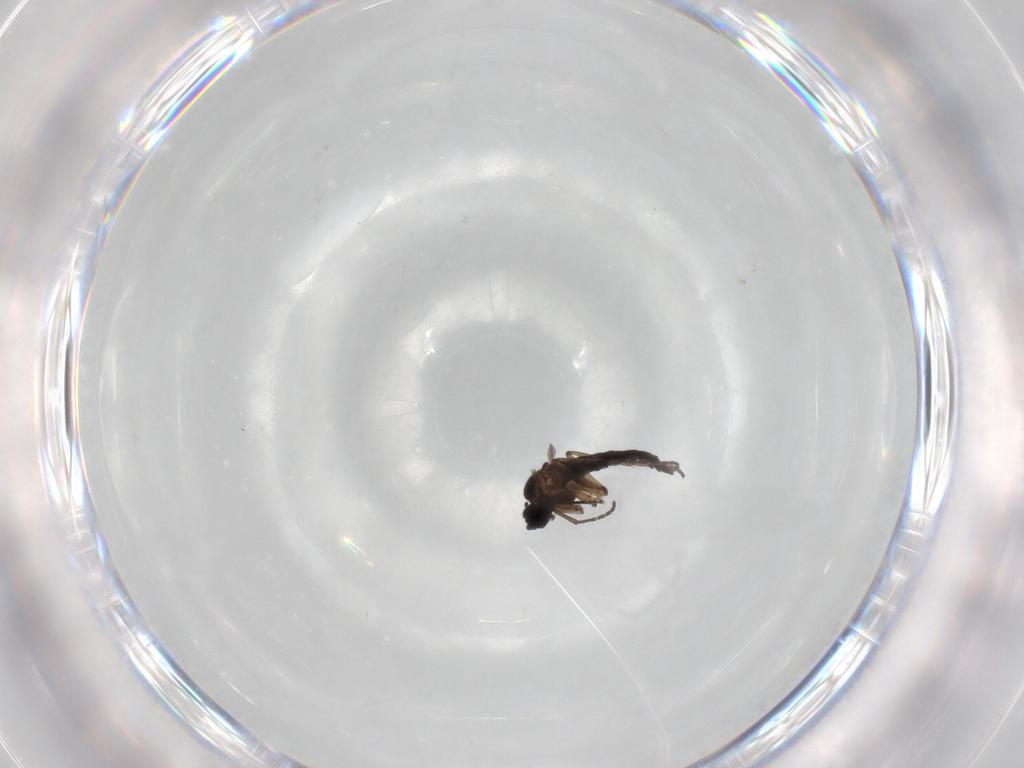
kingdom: Animalia
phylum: Arthropoda
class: Insecta
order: Diptera
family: Sciaridae
